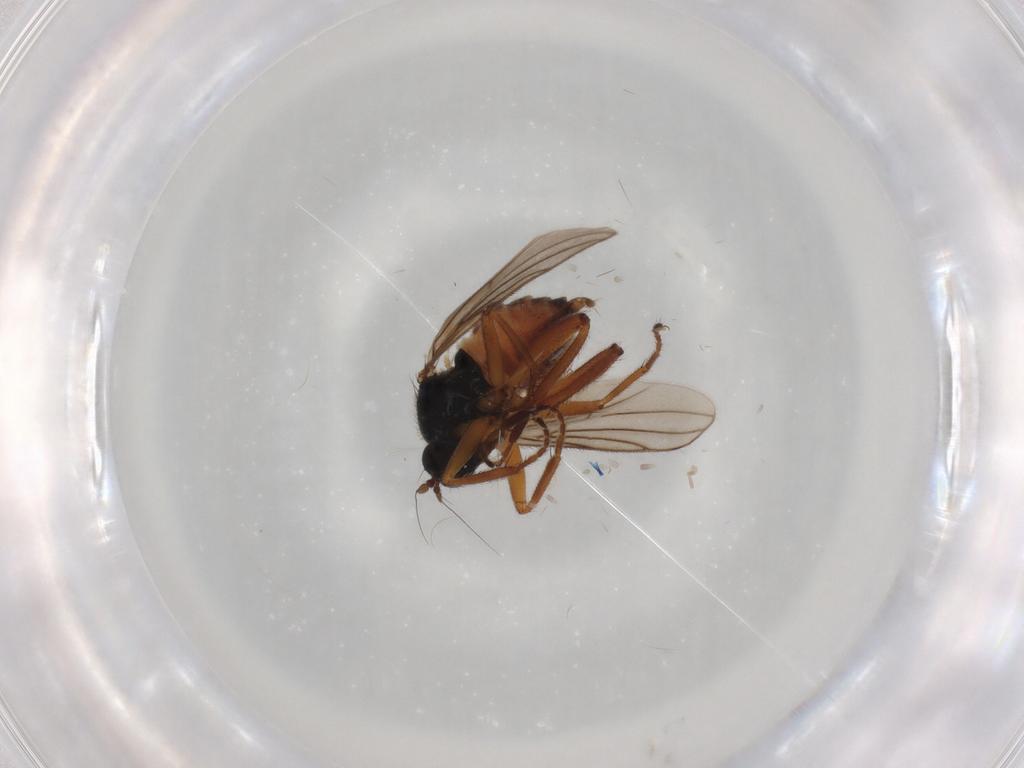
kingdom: Animalia
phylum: Arthropoda
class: Insecta
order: Diptera
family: Hybotidae
